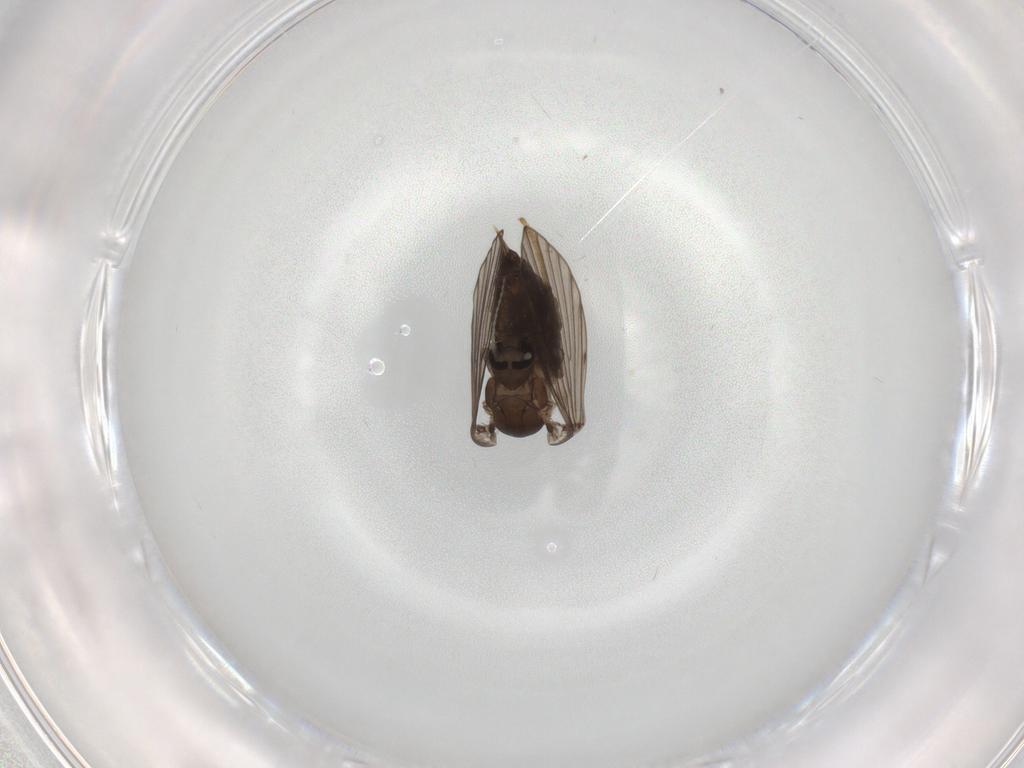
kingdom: Animalia
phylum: Arthropoda
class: Insecta
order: Diptera
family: Psychodidae
